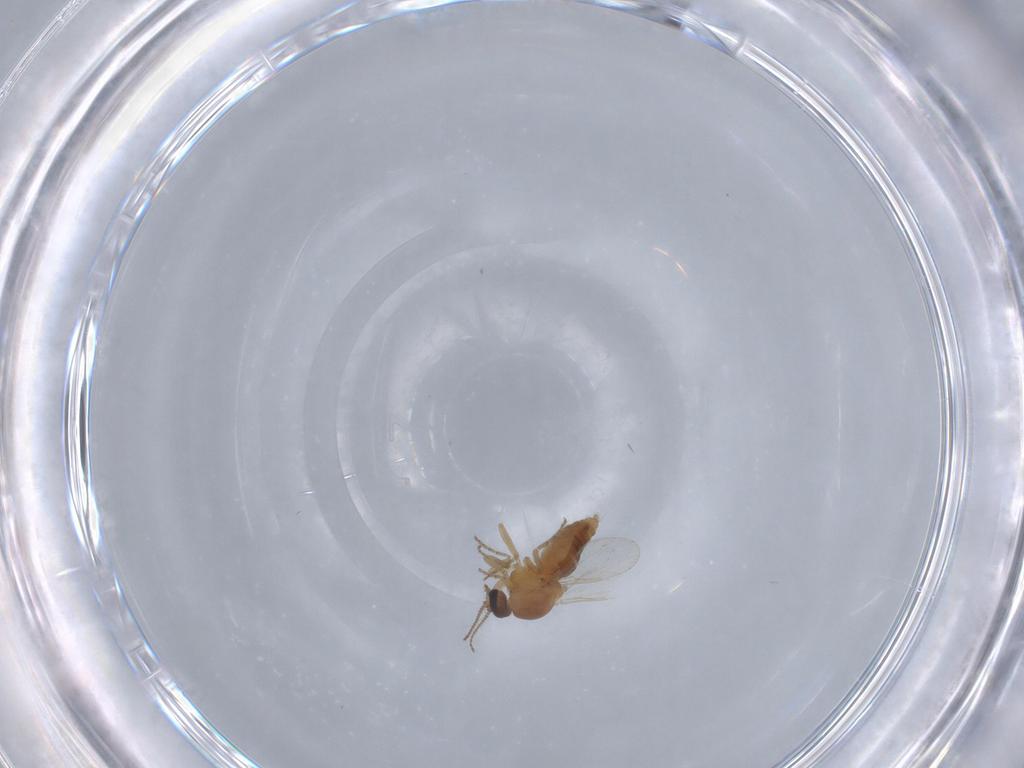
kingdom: Animalia
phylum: Arthropoda
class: Insecta
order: Diptera
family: Ceratopogonidae
